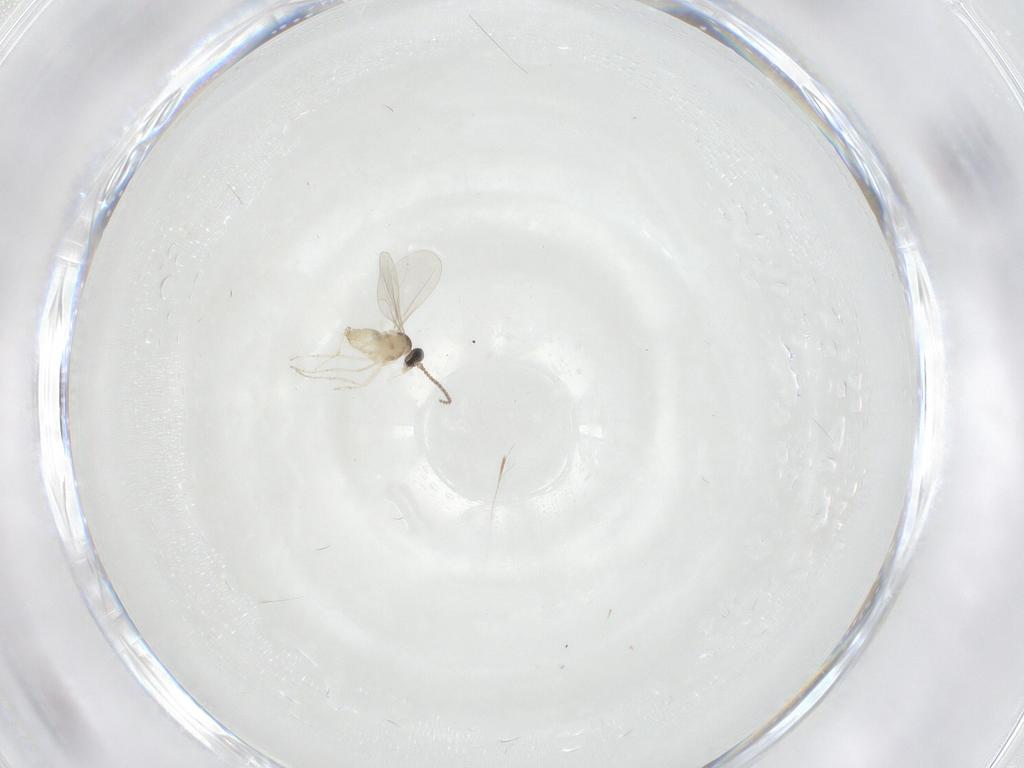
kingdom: Animalia
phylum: Arthropoda
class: Insecta
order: Diptera
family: Cecidomyiidae
